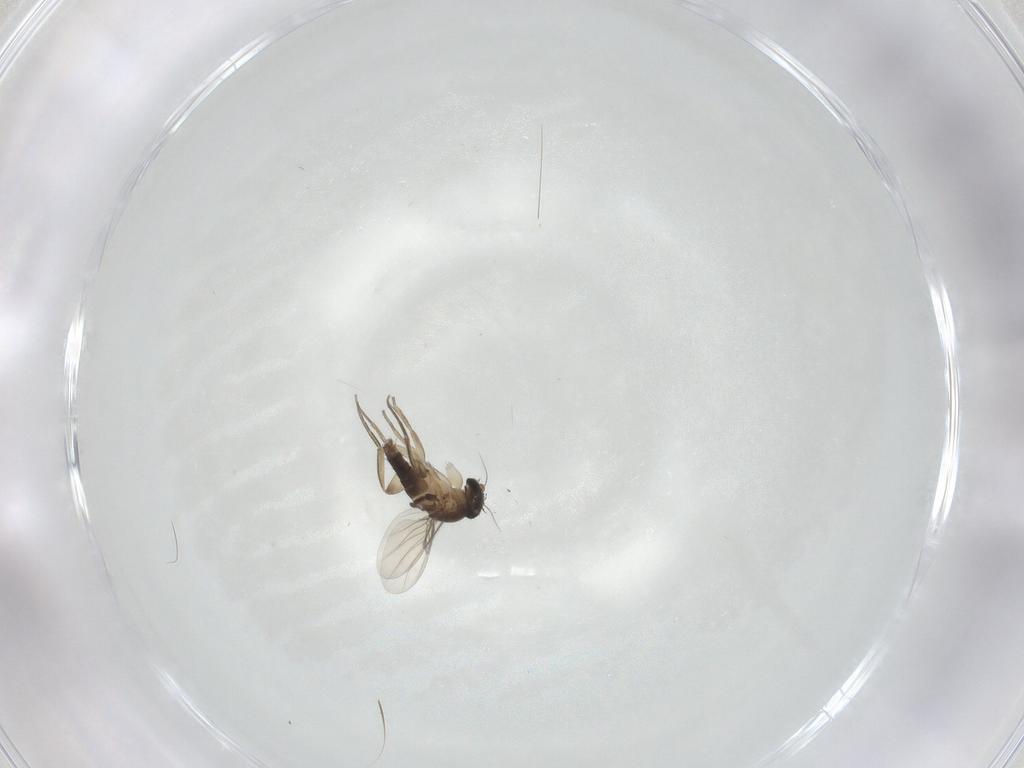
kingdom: Animalia
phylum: Arthropoda
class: Insecta
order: Diptera
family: Phoridae
